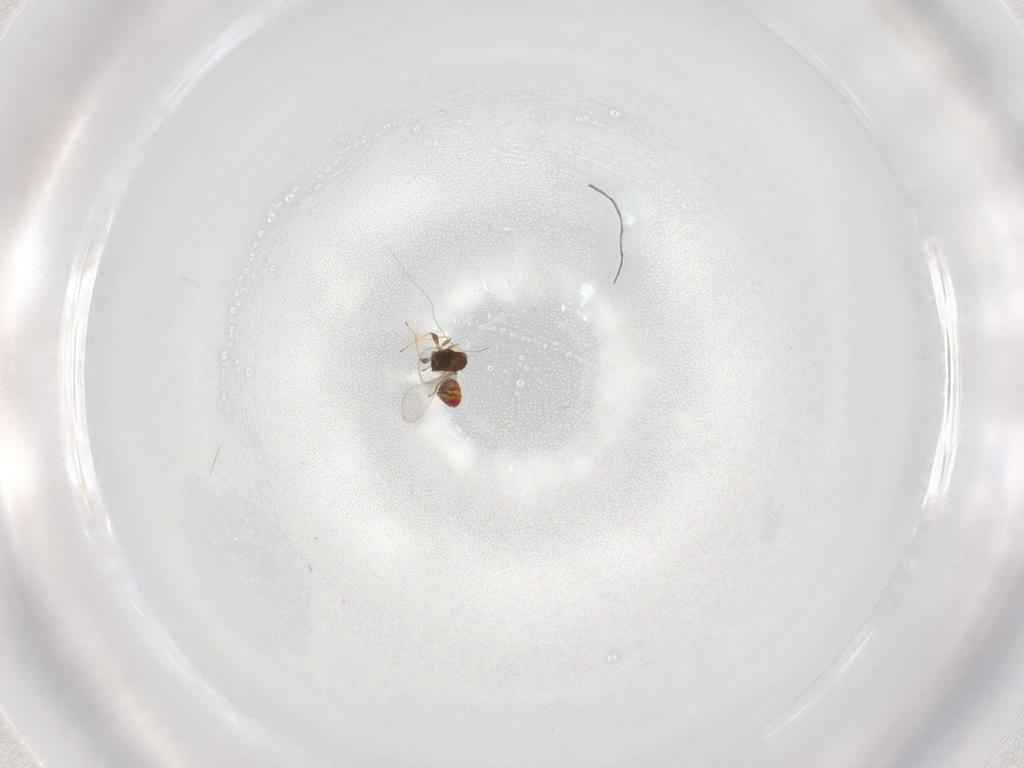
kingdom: Animalia
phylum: Arthropoda
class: Insecta
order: Hymenoptera
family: Trichogrammatidae
